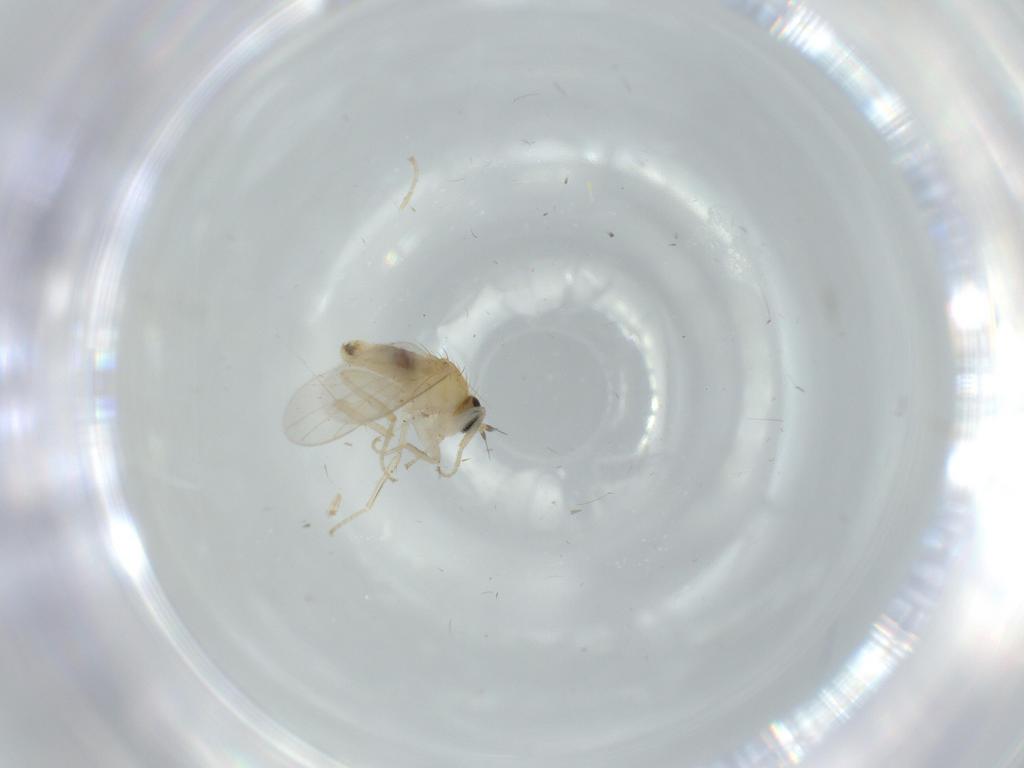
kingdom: Animalia
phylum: Arthropoda
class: Insecta
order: Diptera
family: Hybotidae
